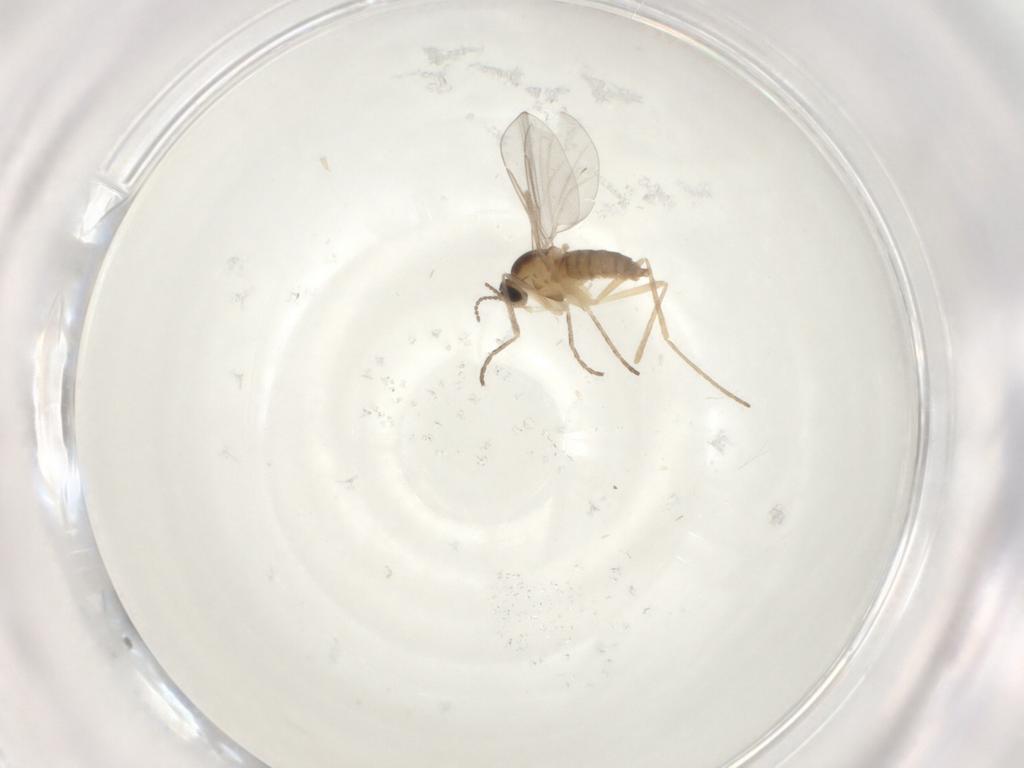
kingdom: Animalia
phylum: Arthropoda
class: Insecta
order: Diptera
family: Cecidomyiidae
